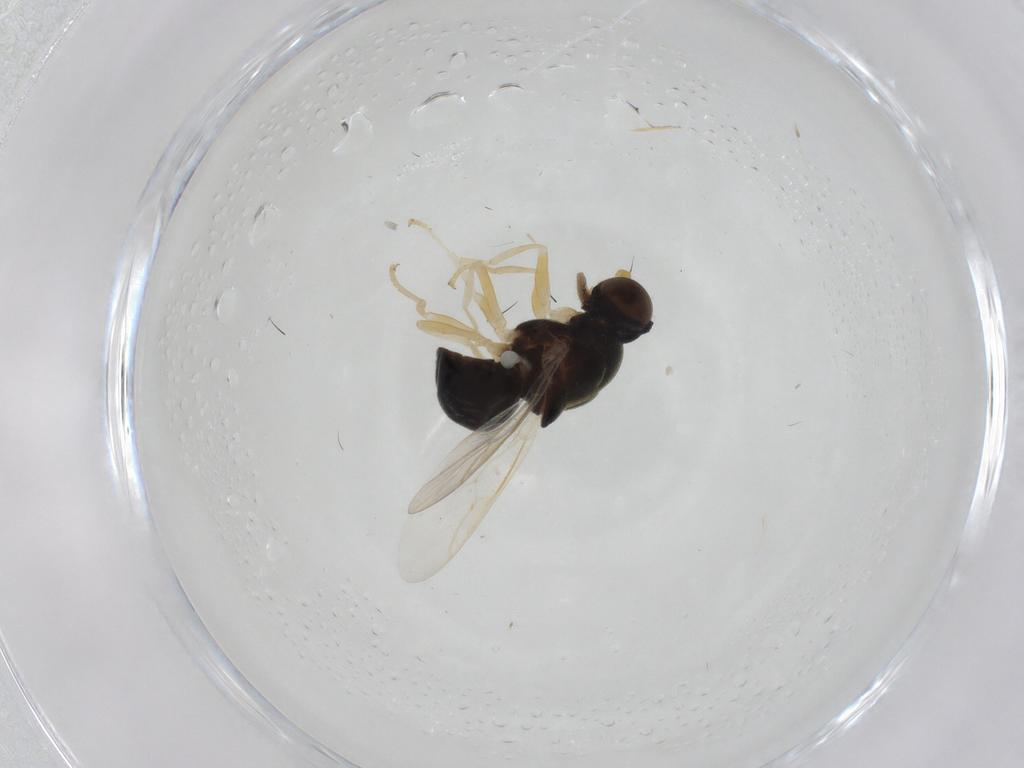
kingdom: Animalia
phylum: Arthropoda
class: Insecta
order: Diptera
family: Stratiomyidae
